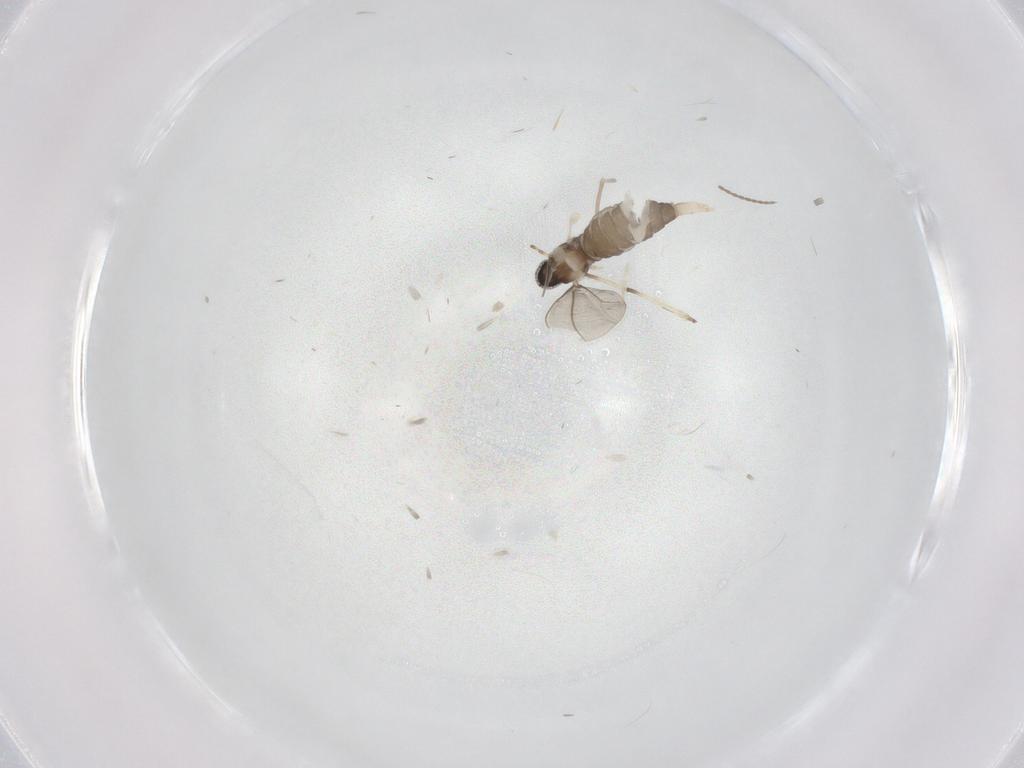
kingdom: Animalia
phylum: Arthropoda
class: Insecta
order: Diptera
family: Cecidomyiidae
